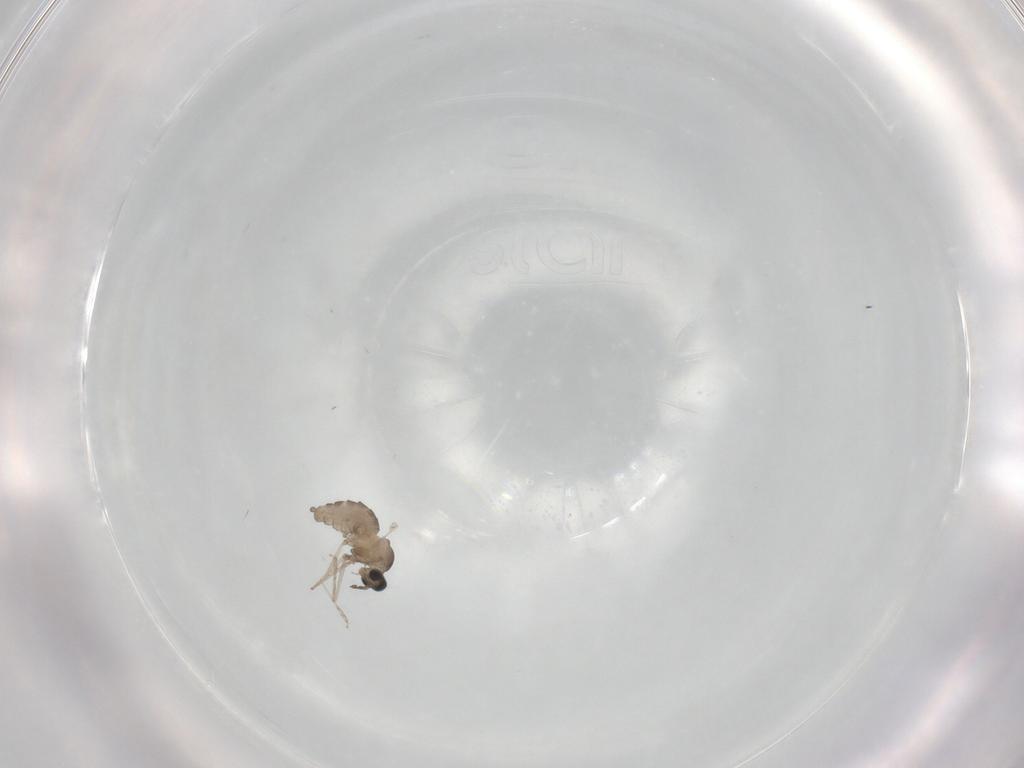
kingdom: Animalia
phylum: Arthropoda
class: Insecta
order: Diptera
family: Cecidomyiidae
